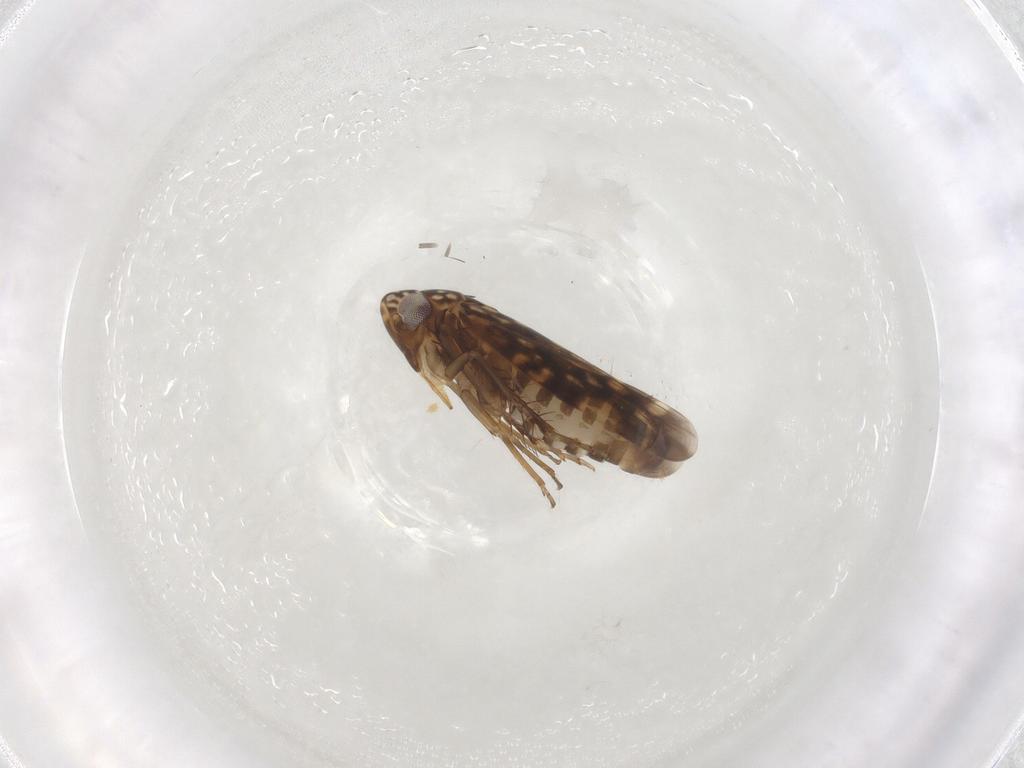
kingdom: Animalia
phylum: Arthropoda
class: Insecta
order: Hemiptera
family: Cicadellidae
